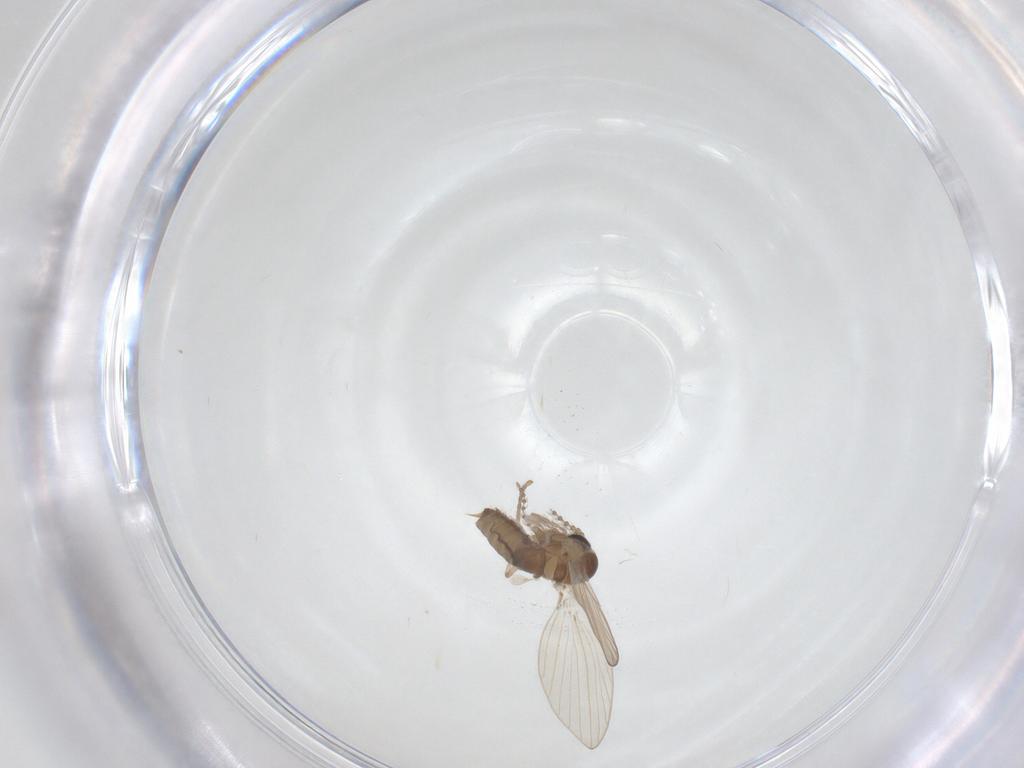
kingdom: Animalia
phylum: Arthropoda
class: Insecta
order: Diptera
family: Psychodidae
